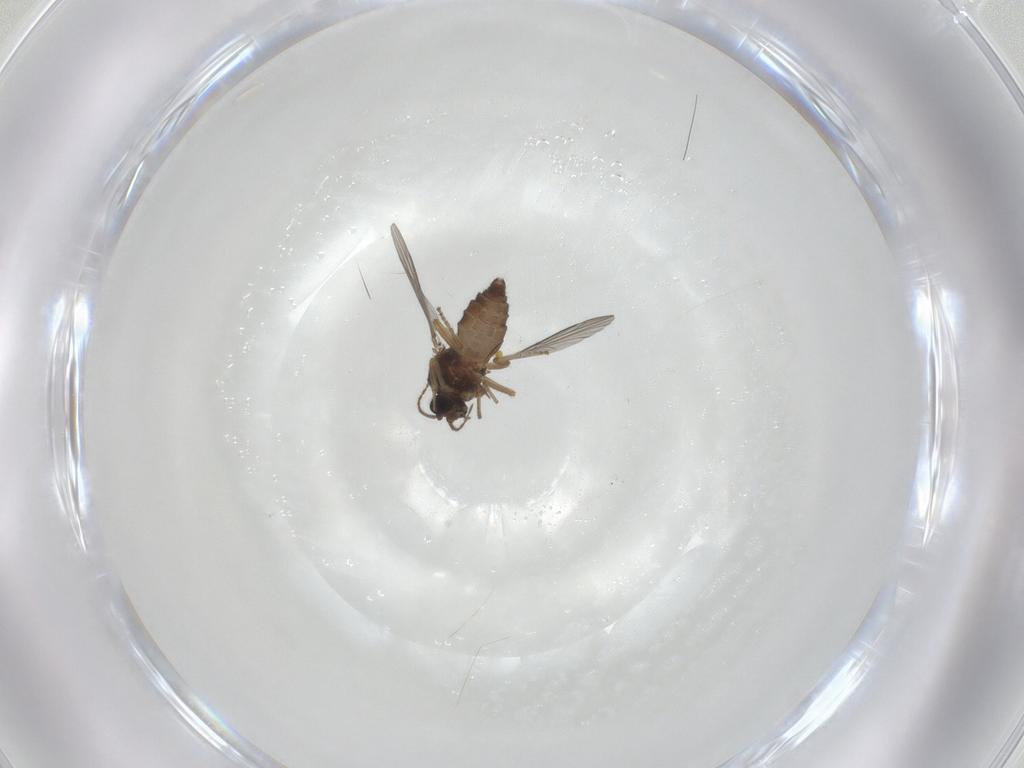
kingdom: Animalia
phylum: Arthropoda
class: Insecta
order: Diptera
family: Ceratopogonidae
